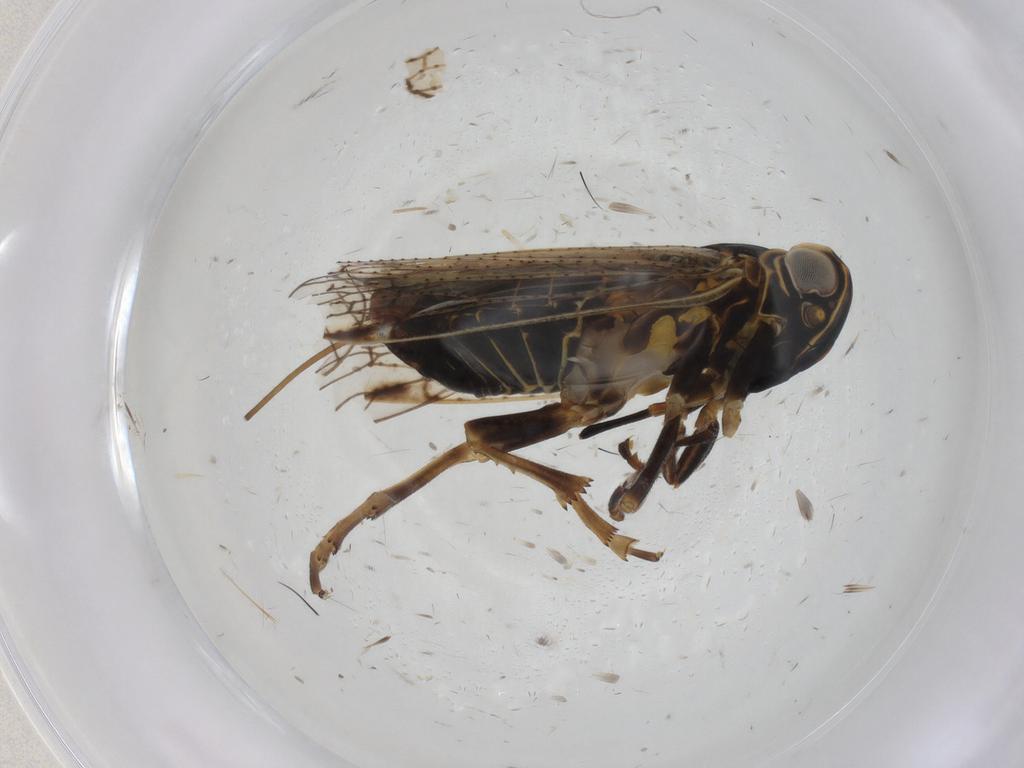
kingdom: Animalia
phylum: Arthropoda
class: Insecta
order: Hemiptera
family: Cixiidae
